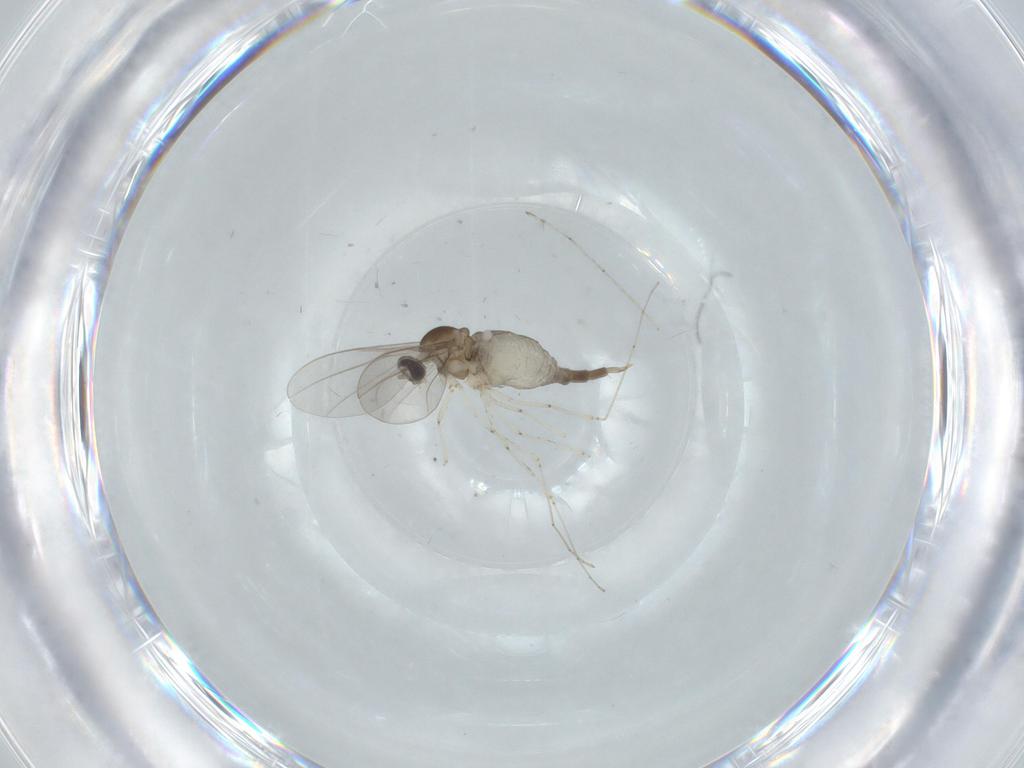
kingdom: Animalia
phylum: Arthropoda
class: Insecta
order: Diptera
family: Cecidomyiidae
